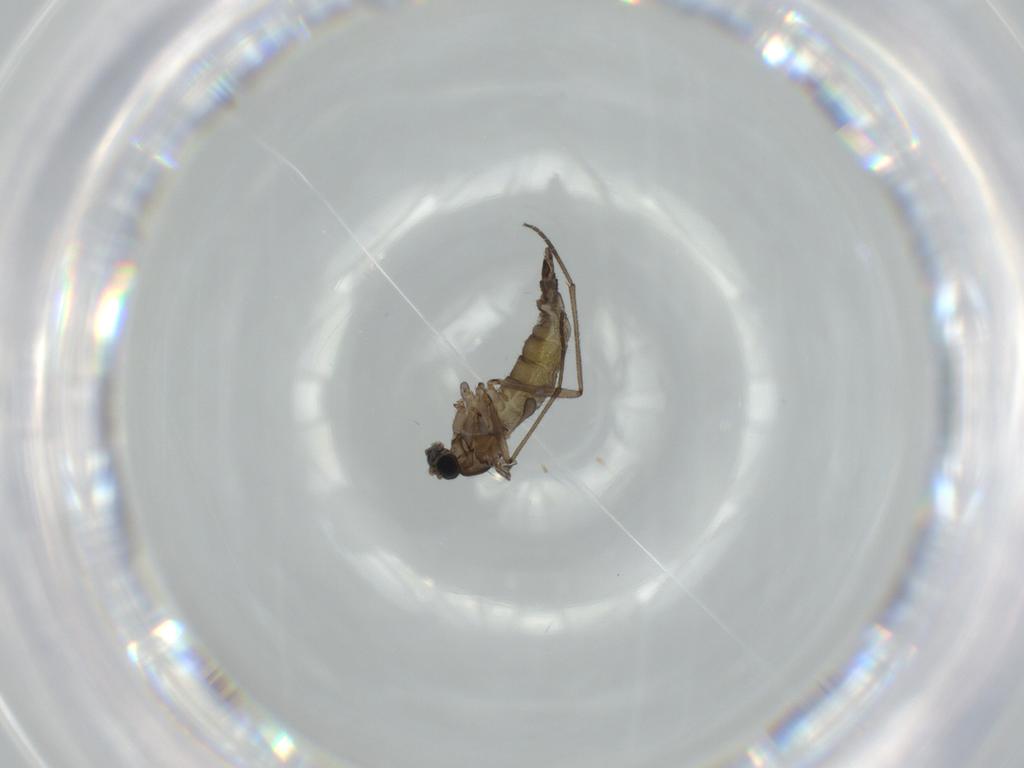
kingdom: Animalia
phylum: Arthropoda
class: Insecta
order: Diptera
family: Sciaridae
